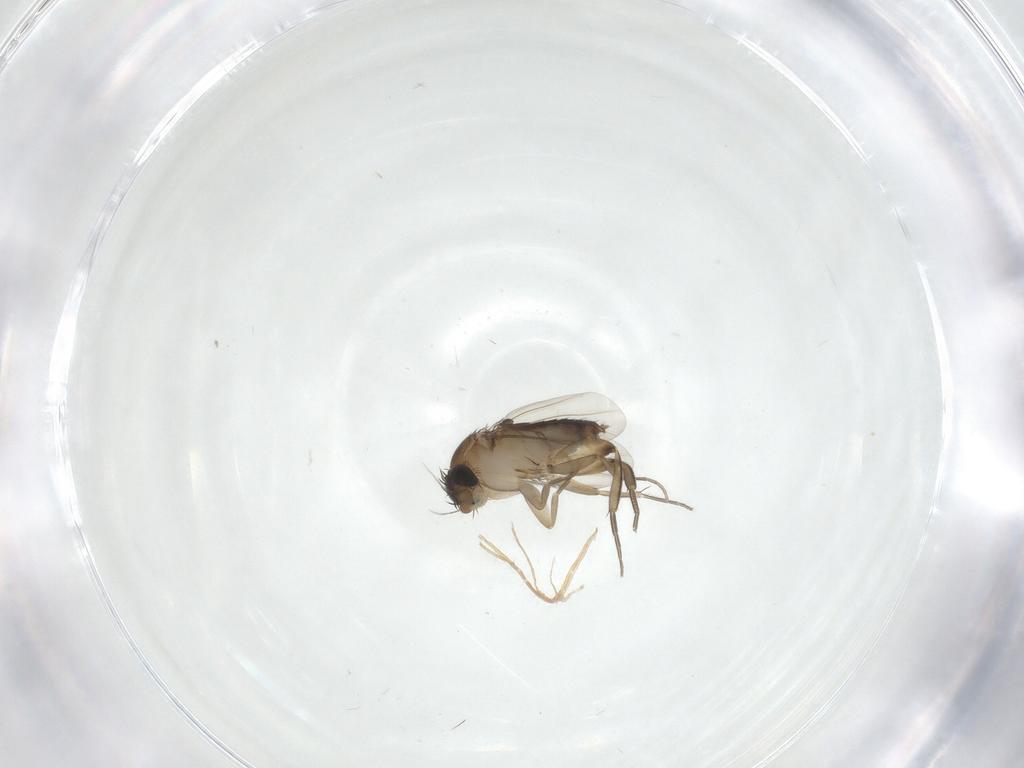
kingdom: Animalia
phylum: Arthropoda
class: Insecta
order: Diptera
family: Phoridae
